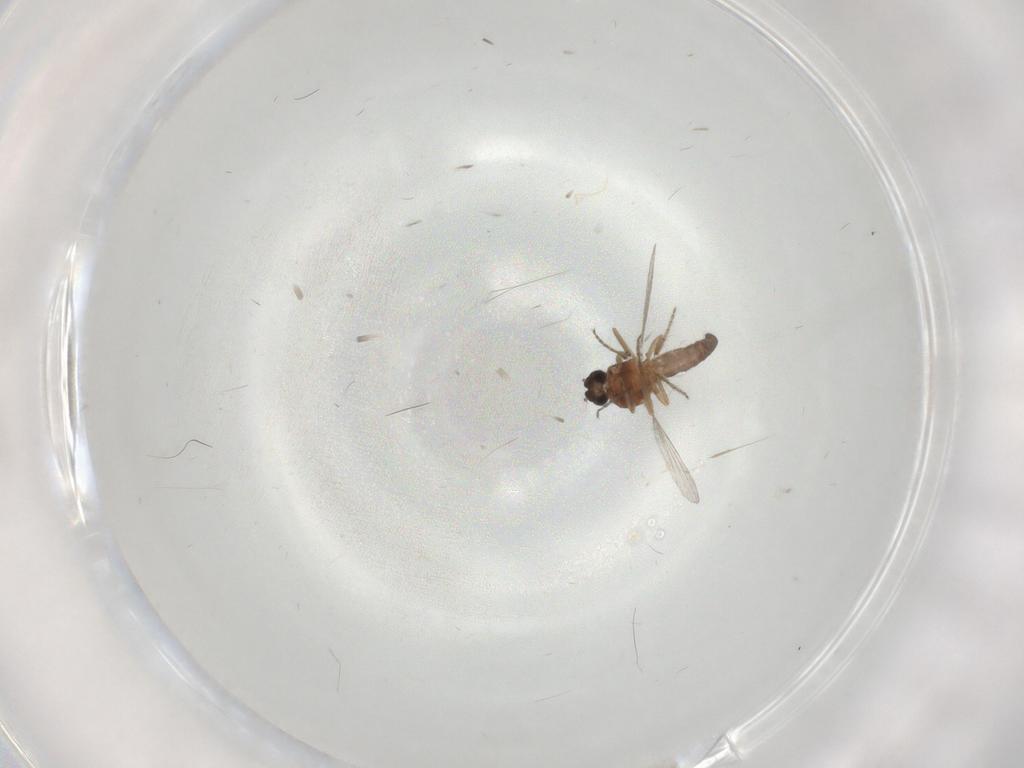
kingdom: Animalia
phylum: Arthropoda
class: Insecta
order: Diptera
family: Ceratopogonidae
